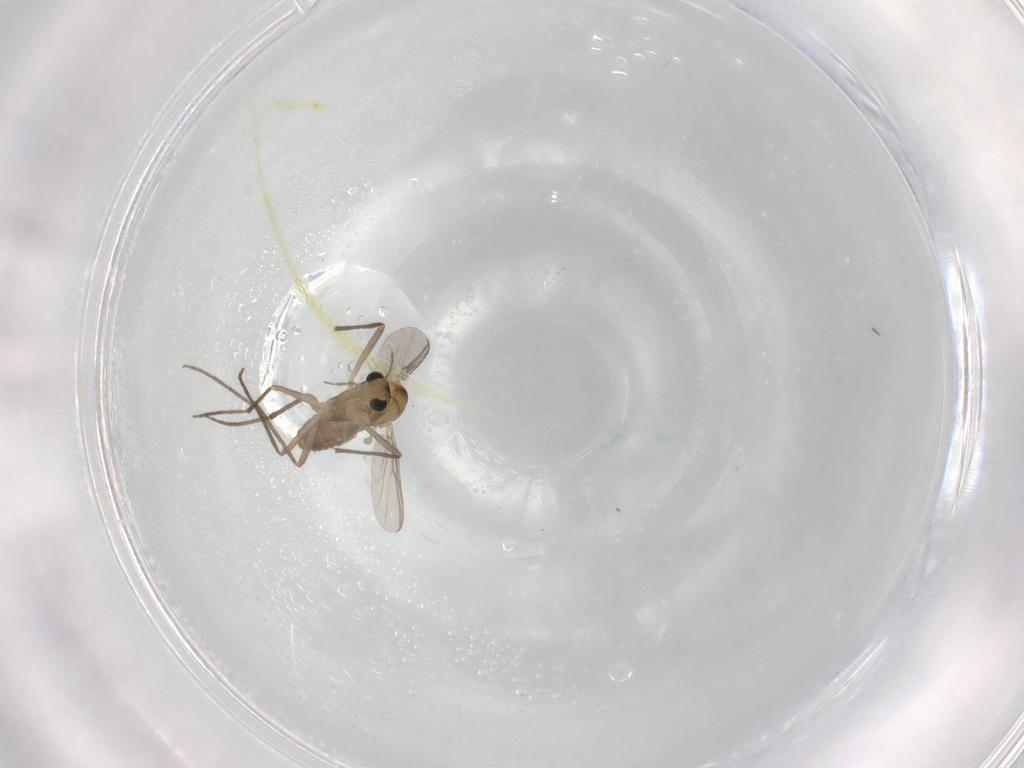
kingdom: Animalia
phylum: Arthropoda
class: Insecta
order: Diptera
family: Chironomidae
